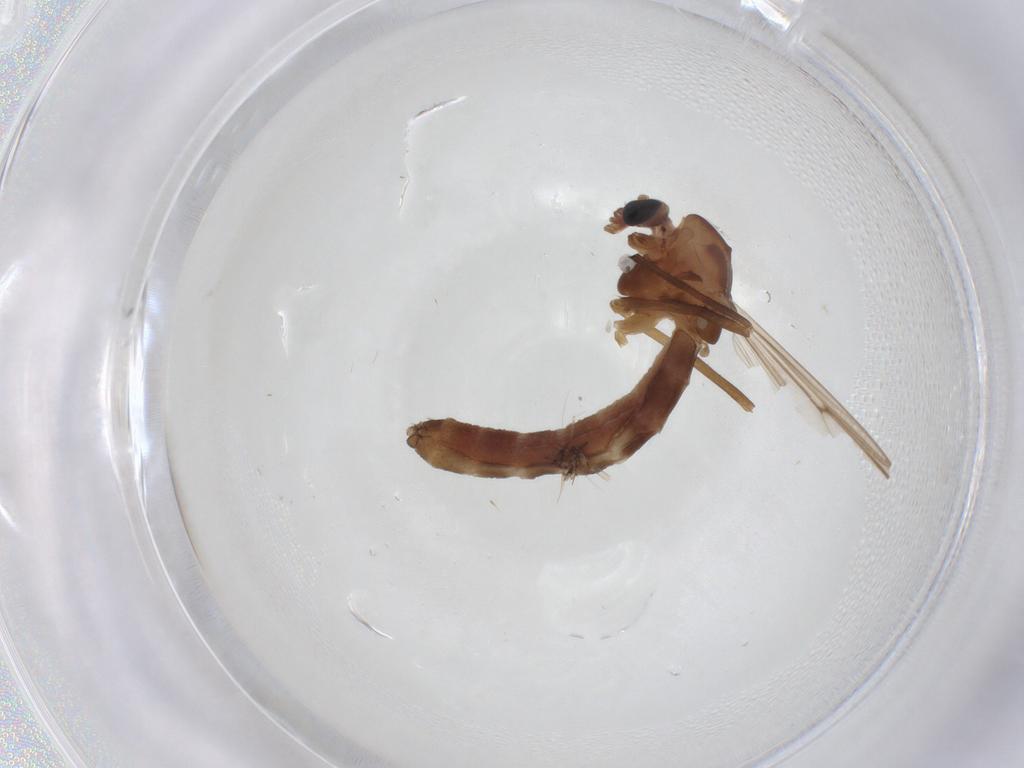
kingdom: Animalia
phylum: Arthropoda
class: Insecta
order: Diptera
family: Chironomidae
